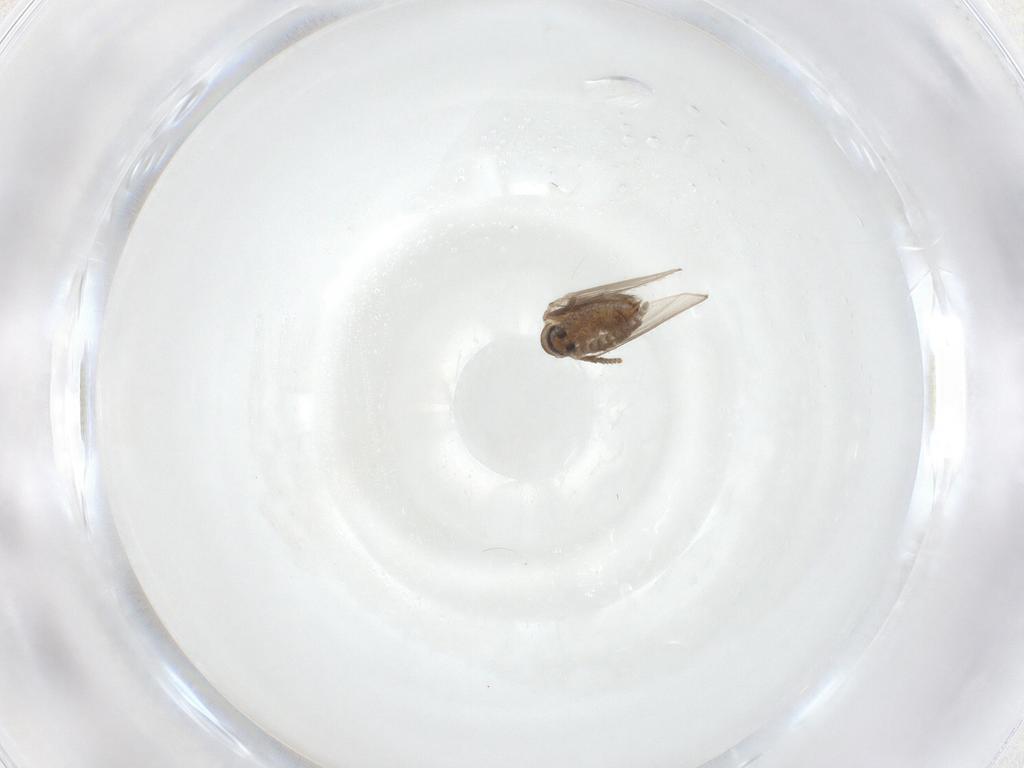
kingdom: Animalia
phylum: Arthropoda
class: Insecta
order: Diptera
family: Psychodidae
